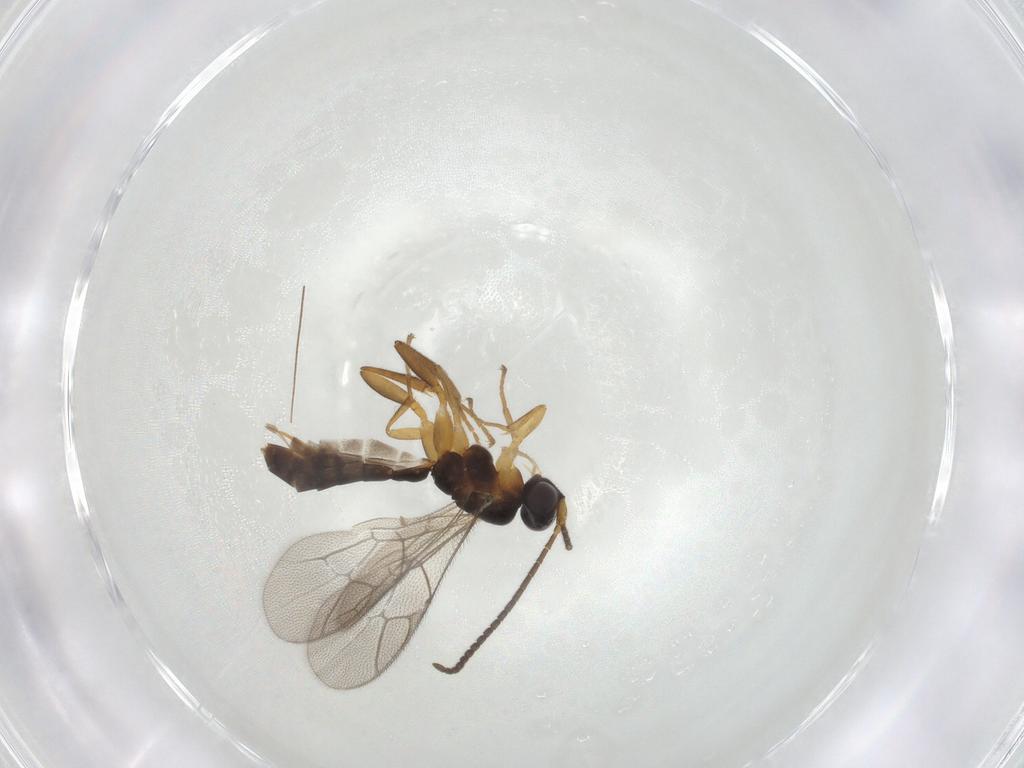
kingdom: Animalia
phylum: Arthropoda
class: Insecta
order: Hymenoptera
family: Ichneumonidae
